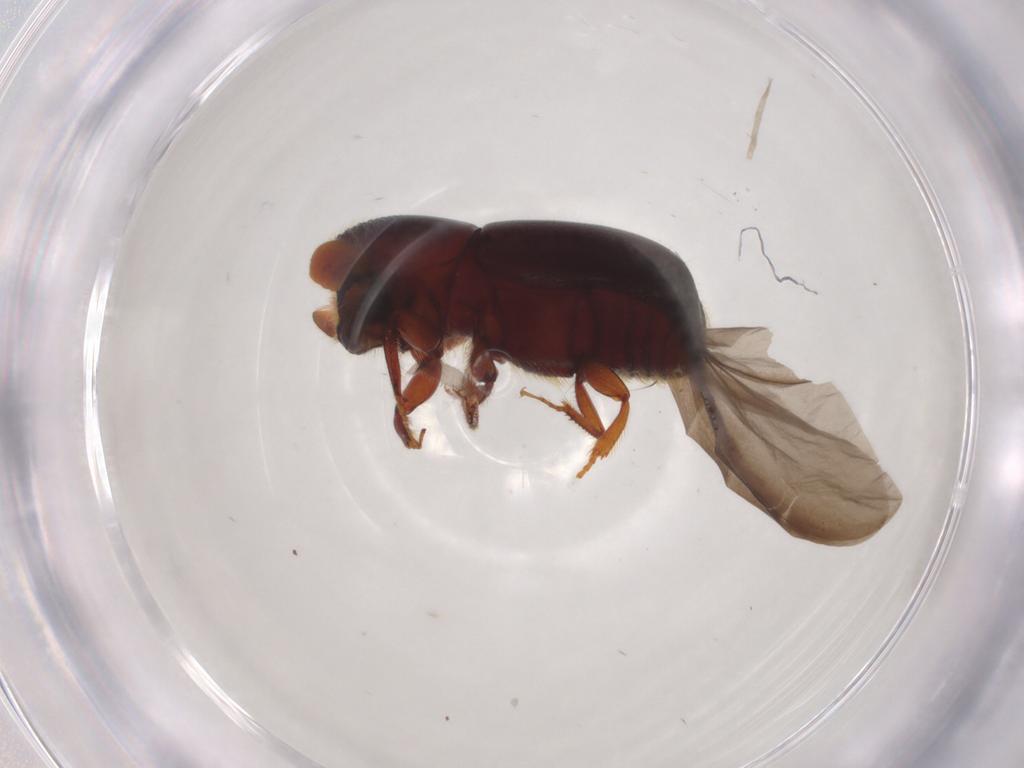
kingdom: Animalia
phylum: Arthropoda
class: Insecta
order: Coleoptera
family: Curculionidae
